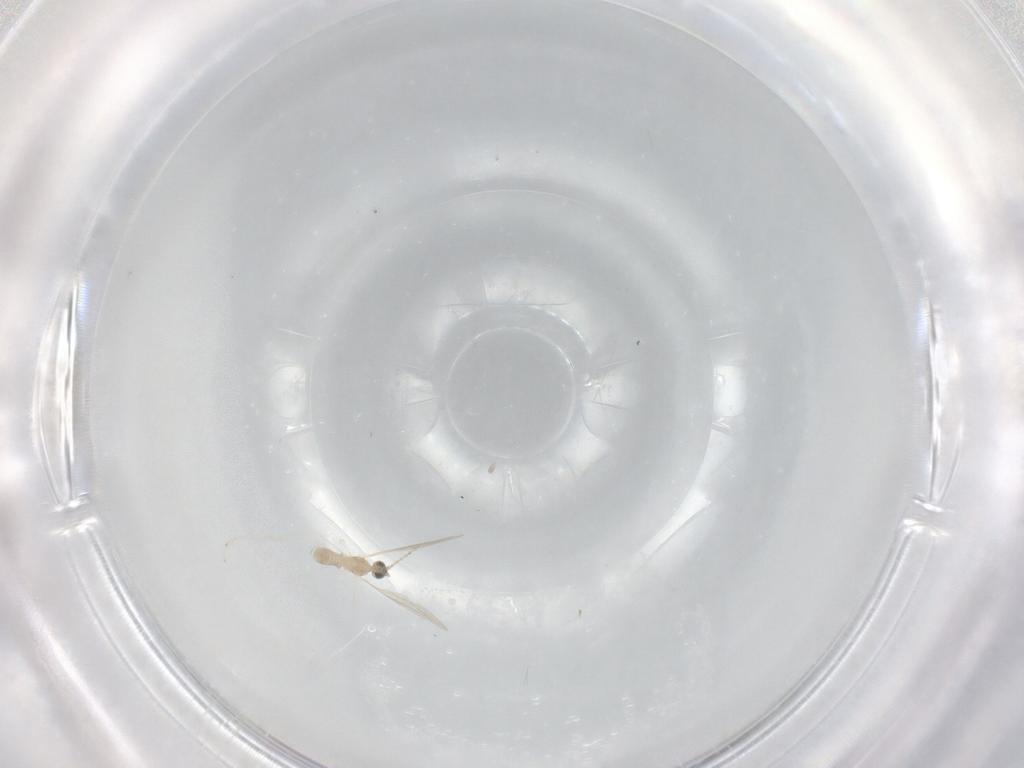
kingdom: Animalia
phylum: Arthropoda
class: Insecta
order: Diptera
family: Cecidomyiidae
